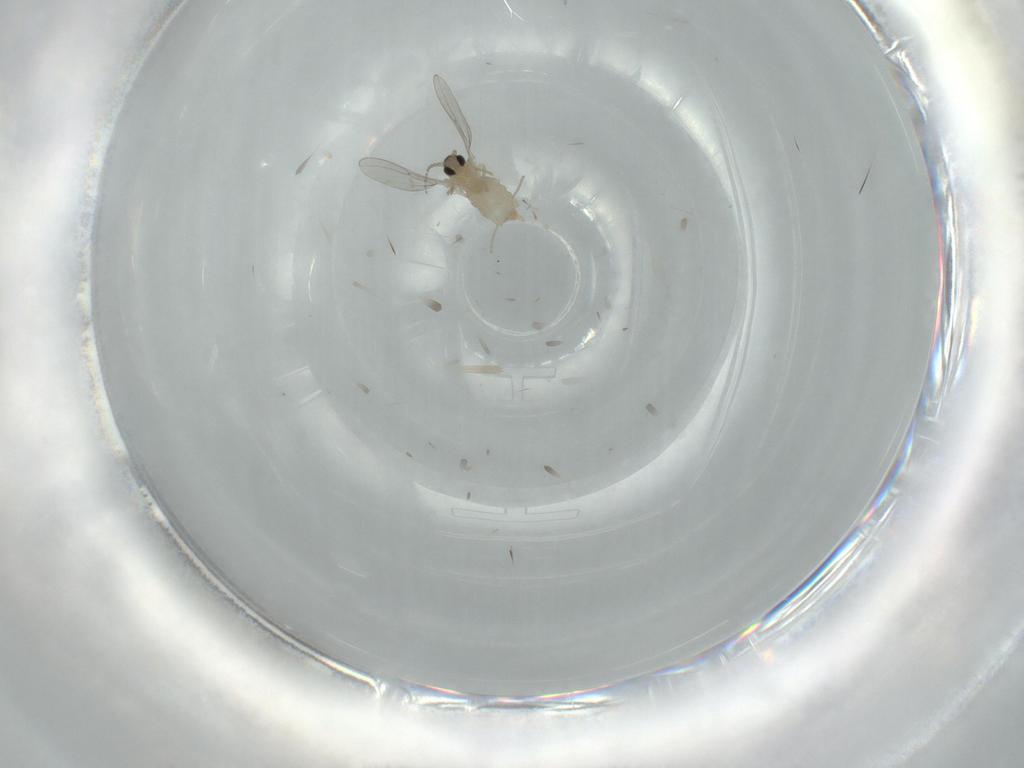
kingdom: Animalia
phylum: Arthropoda
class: Insecta
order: Diptera
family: Cecidomyiidae
